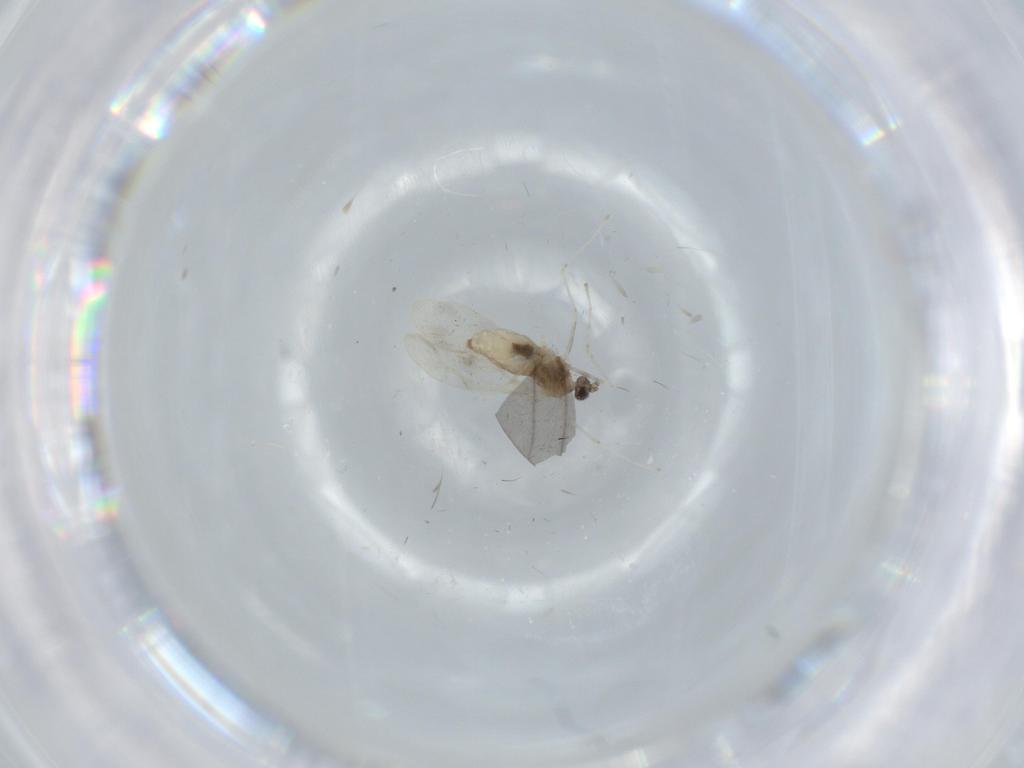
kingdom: Animalia
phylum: Arthropoda
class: Insecta
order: Diptera
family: Cecidomyiidae
